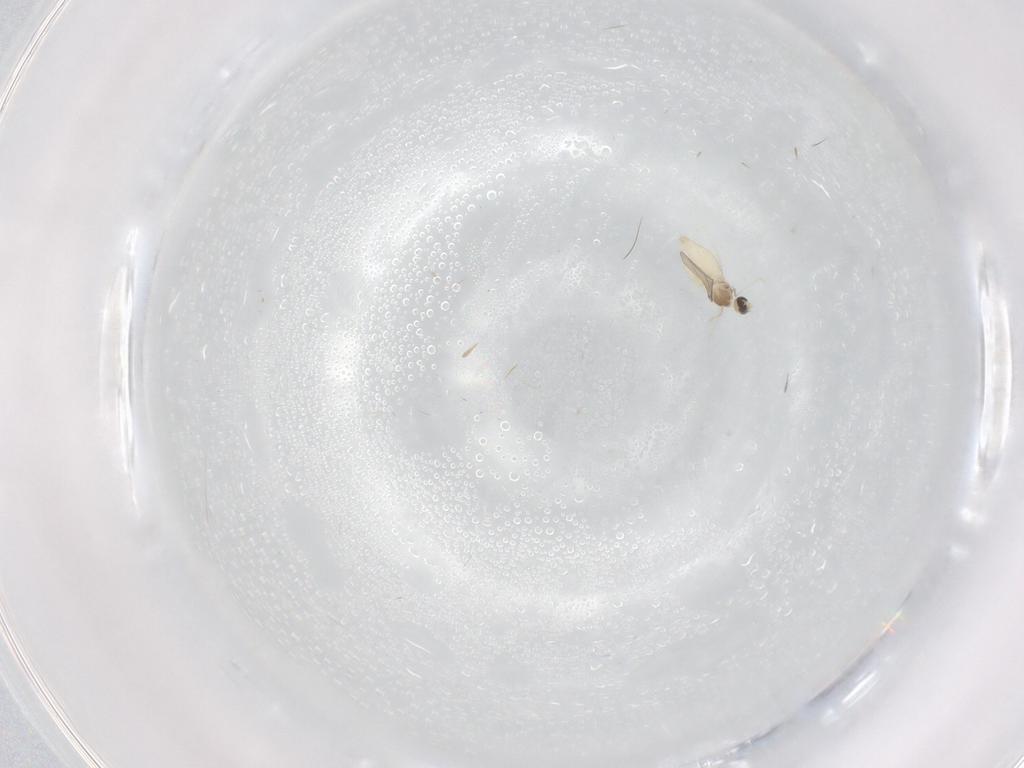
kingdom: Animalia
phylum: Arthropoda
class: Insecta
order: Diptera
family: Cecidomyiidae
